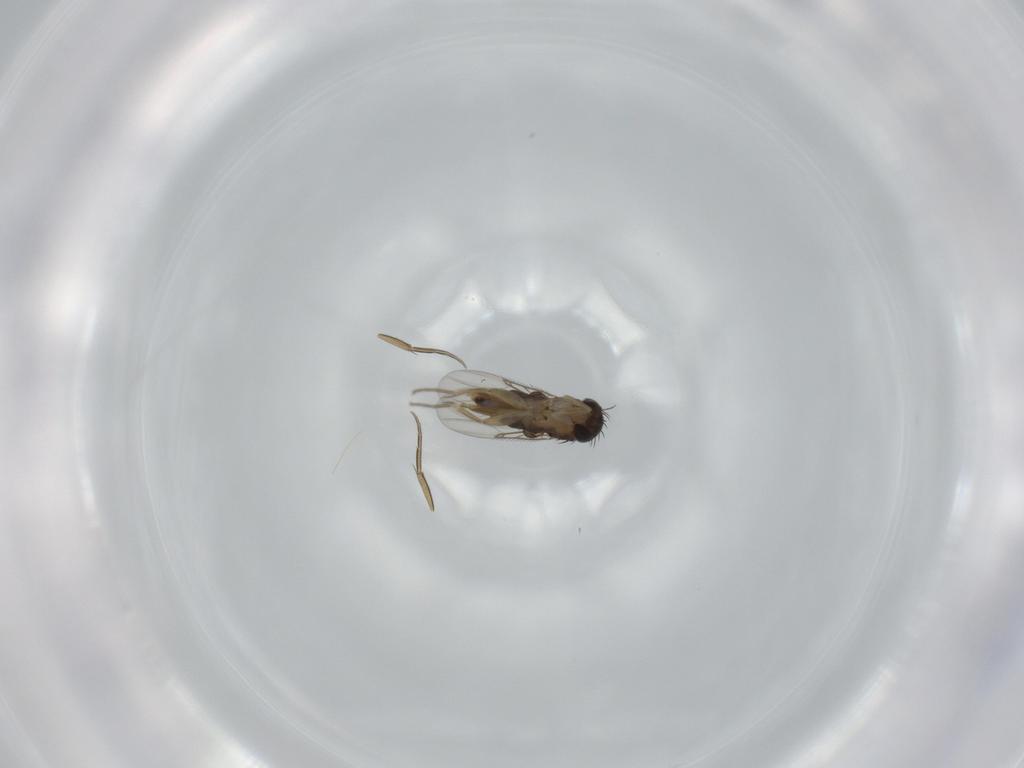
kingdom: Animalia
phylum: Arthropoda
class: Insecta
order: Diptera
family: Phoridae
